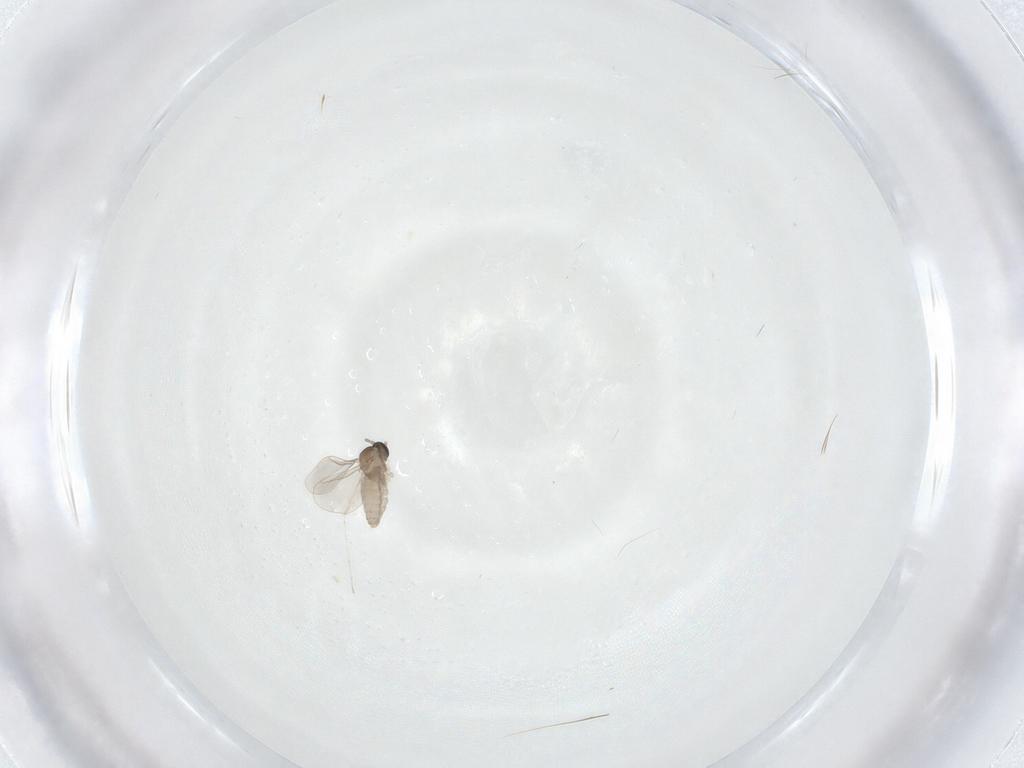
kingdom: Animalia
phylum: Arthropoda
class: Insecta
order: Diptera
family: Cecidomyiidae
